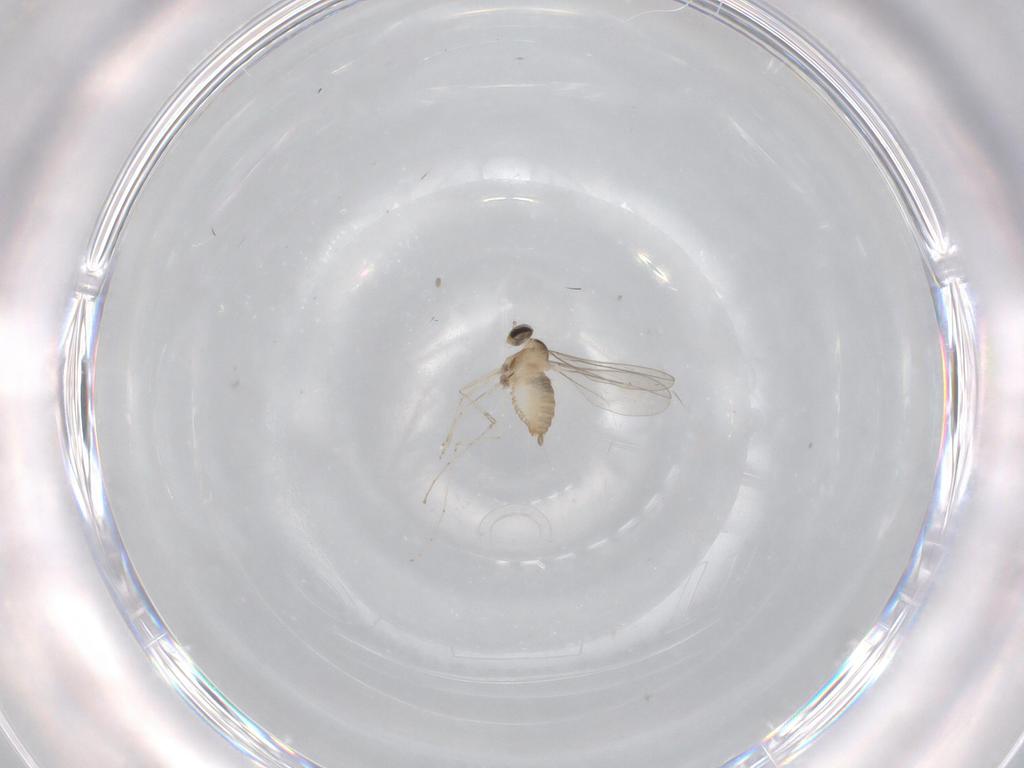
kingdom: Animalia
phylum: Arthropoda
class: Insecta
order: Diptera
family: Cecidomyiidae
